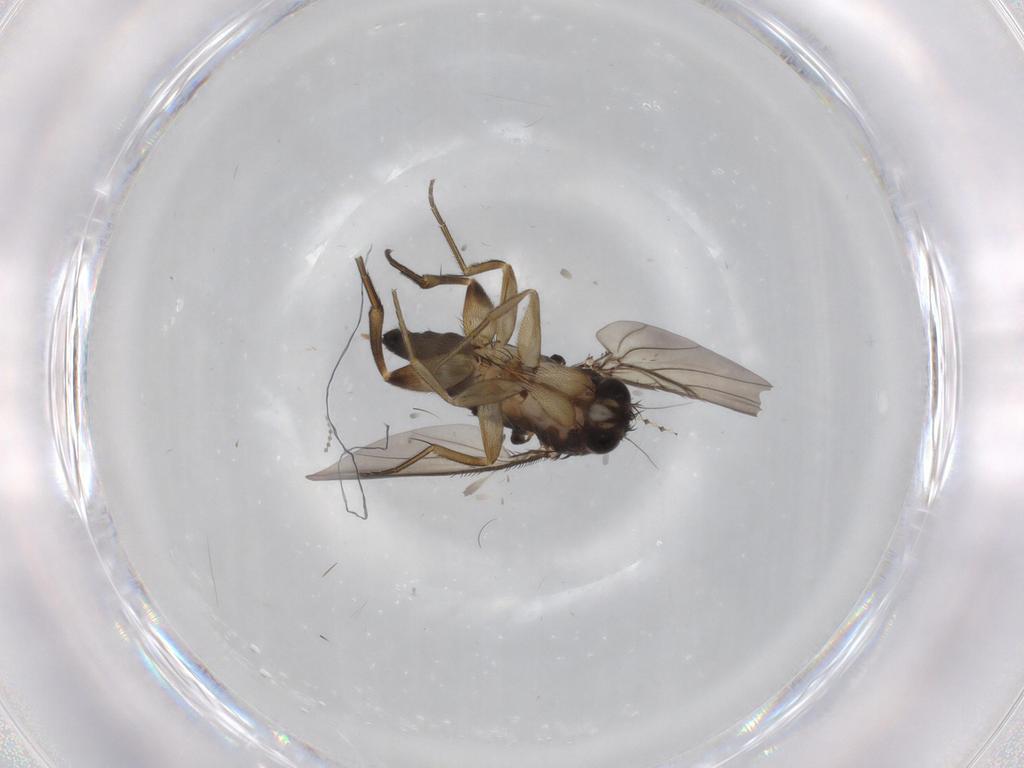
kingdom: Animalia
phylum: Arthropoda
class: Insecta
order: Diptera
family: Phoridae
